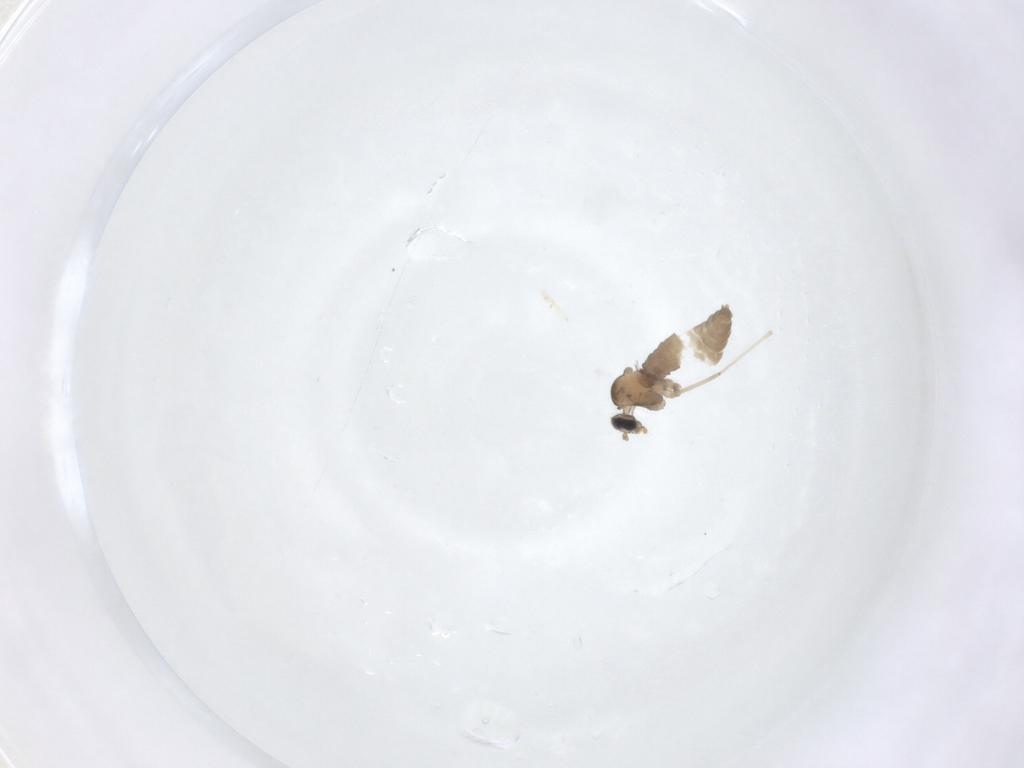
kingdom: Animalia
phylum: Arthropoda
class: Insecta
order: Diptera
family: Cecidomyiidae
